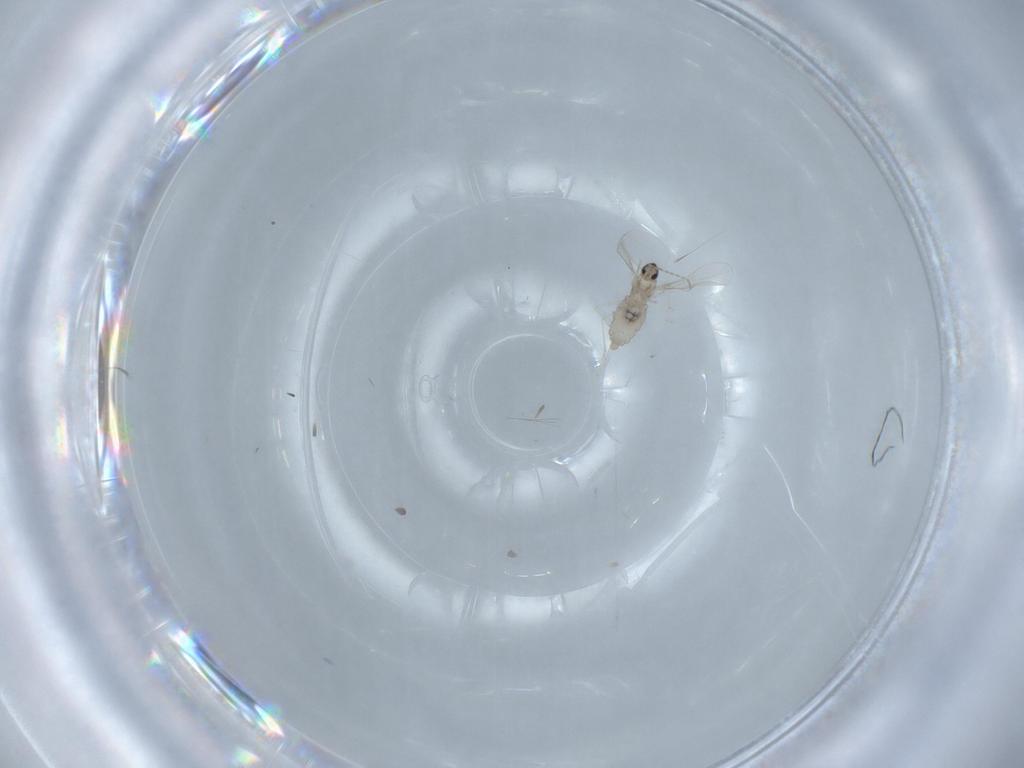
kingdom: Animalia
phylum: Arthropoda
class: Insecta
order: Diptera
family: Cecidomyiidae
